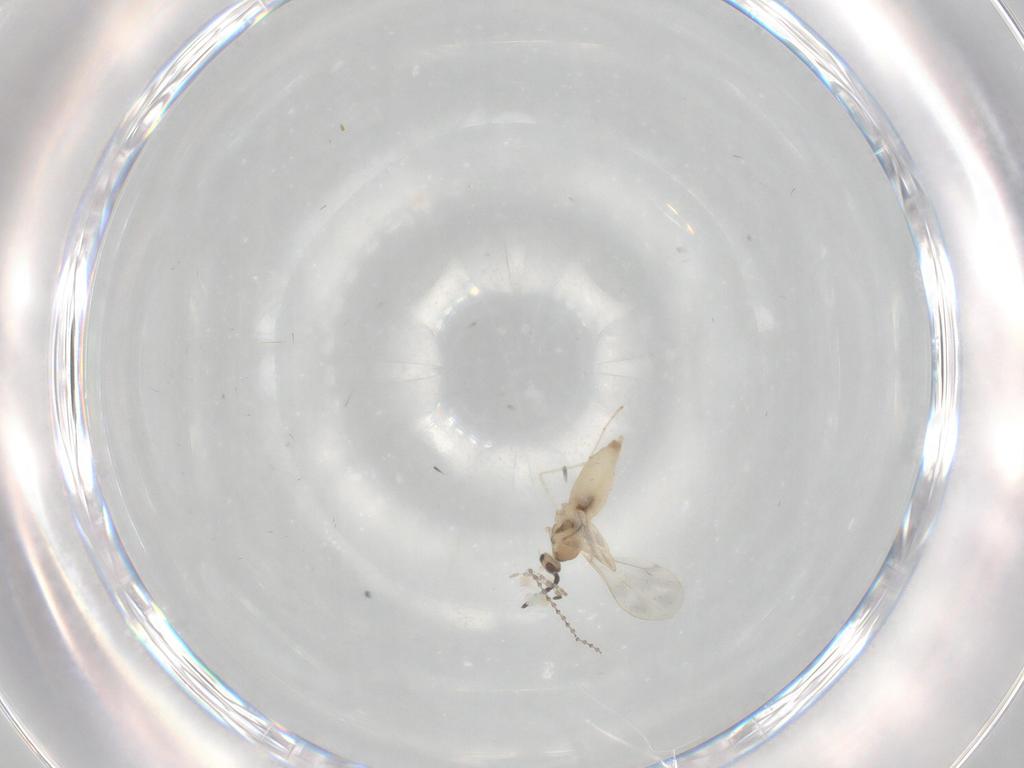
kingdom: Animalia
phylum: Arthropoda
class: Insecta
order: Diptera
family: Cecidomyiidae
